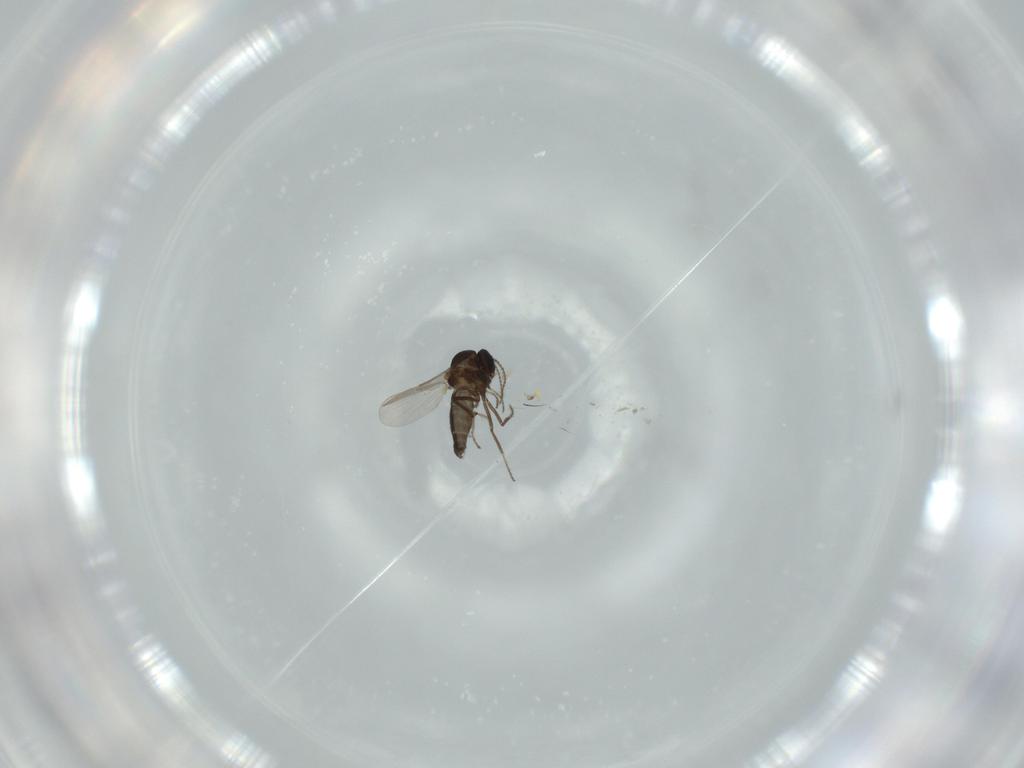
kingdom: Animalia
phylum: Arthropoda
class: Insecta
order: Diptera
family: Ceratopogonidae
